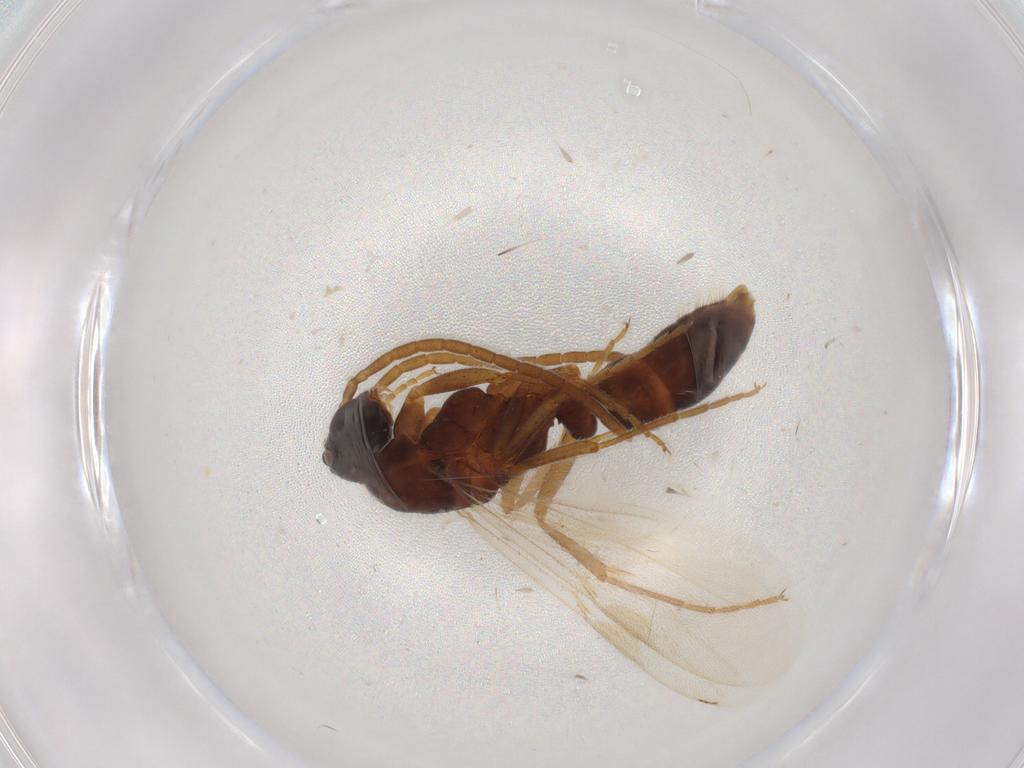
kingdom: Animalia
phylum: Arthropoda
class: Insecta
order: Hymenoptera
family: Formicidae
